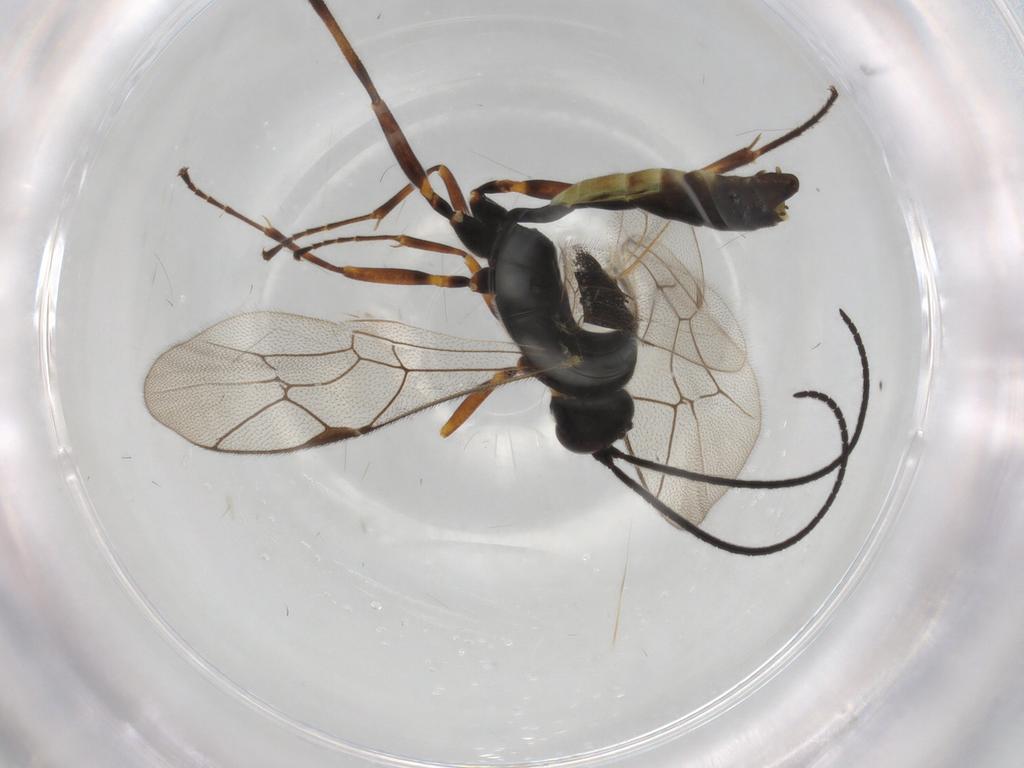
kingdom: Animalia
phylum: Arthropoda
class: Insecta
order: Hymenoptera
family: Ichneumonidae
